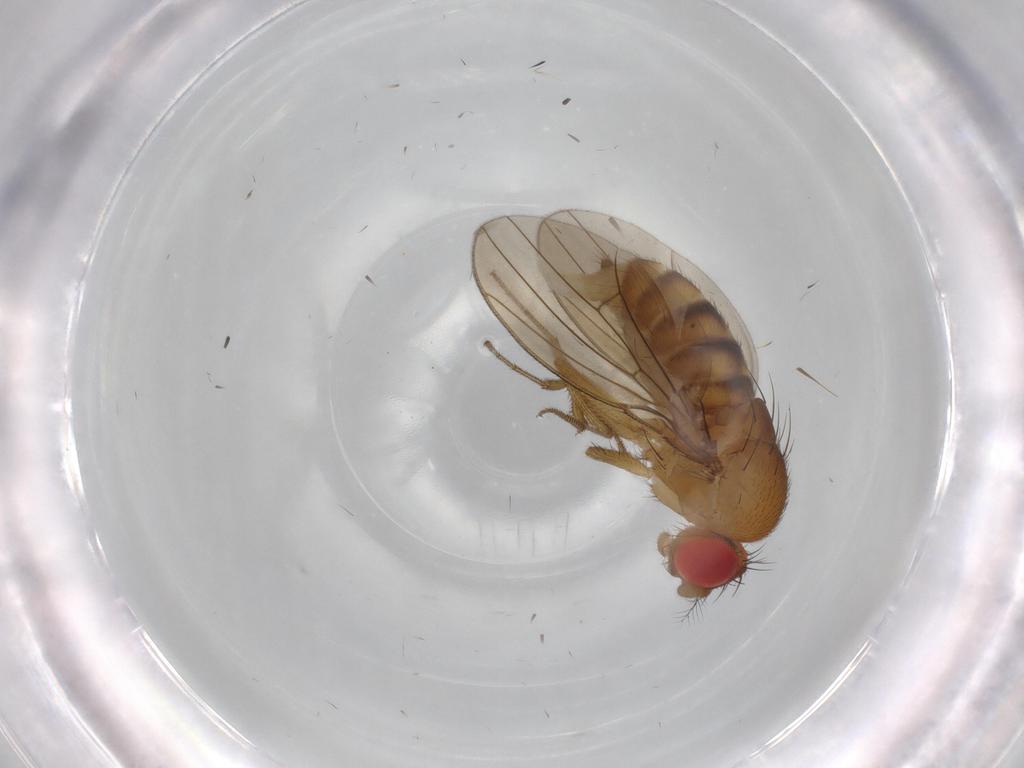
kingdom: Animalia
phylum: Arthropoda
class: Insecta
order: Diptera
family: Drosophilidae
